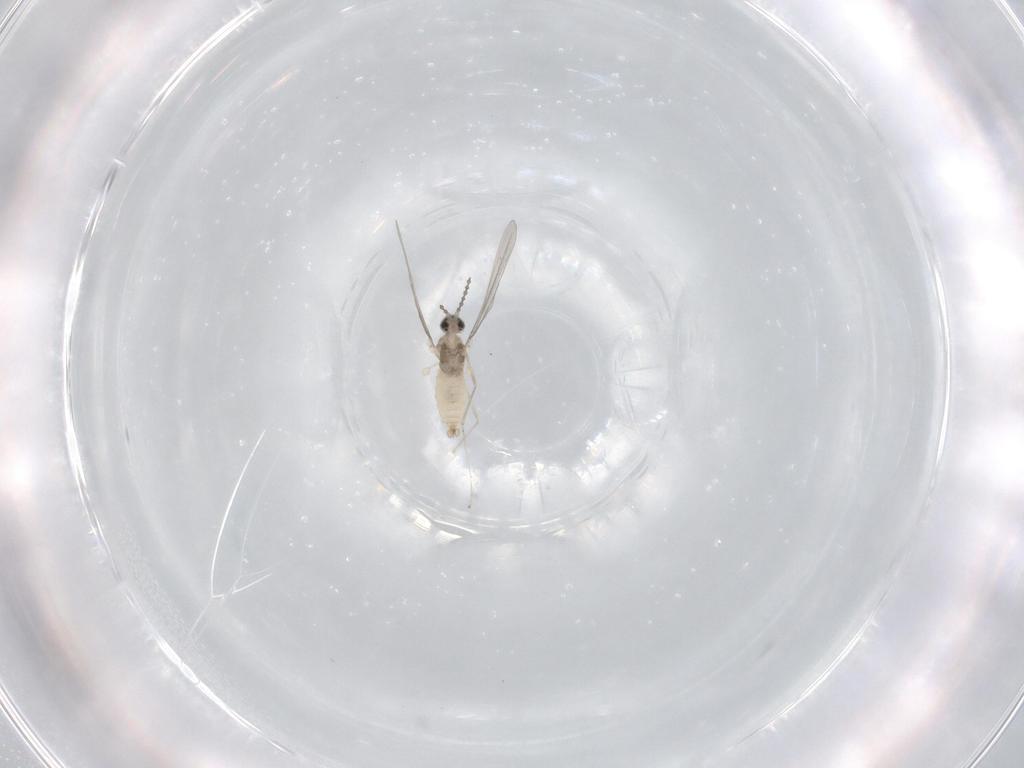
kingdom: Animalia
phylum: Arthropoda
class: Insecta
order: Diptera
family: Cecidomyiidae
